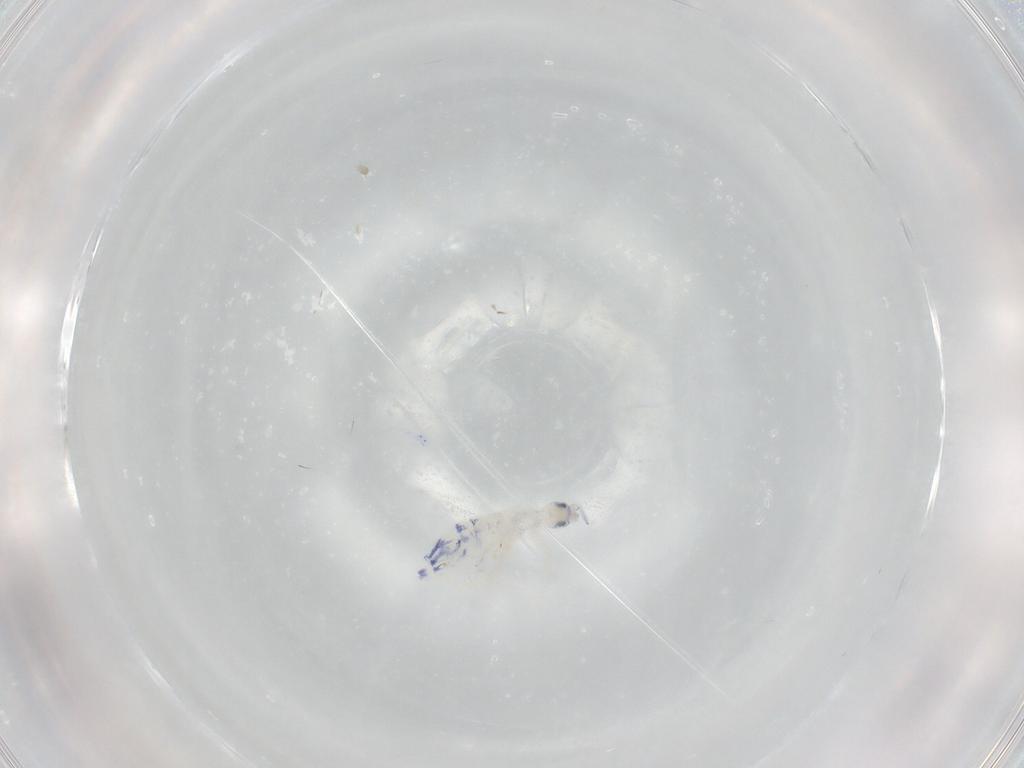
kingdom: Animalia
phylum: Arthropoda
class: Collembola
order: Entomobryomorpha
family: Entomobryidae
